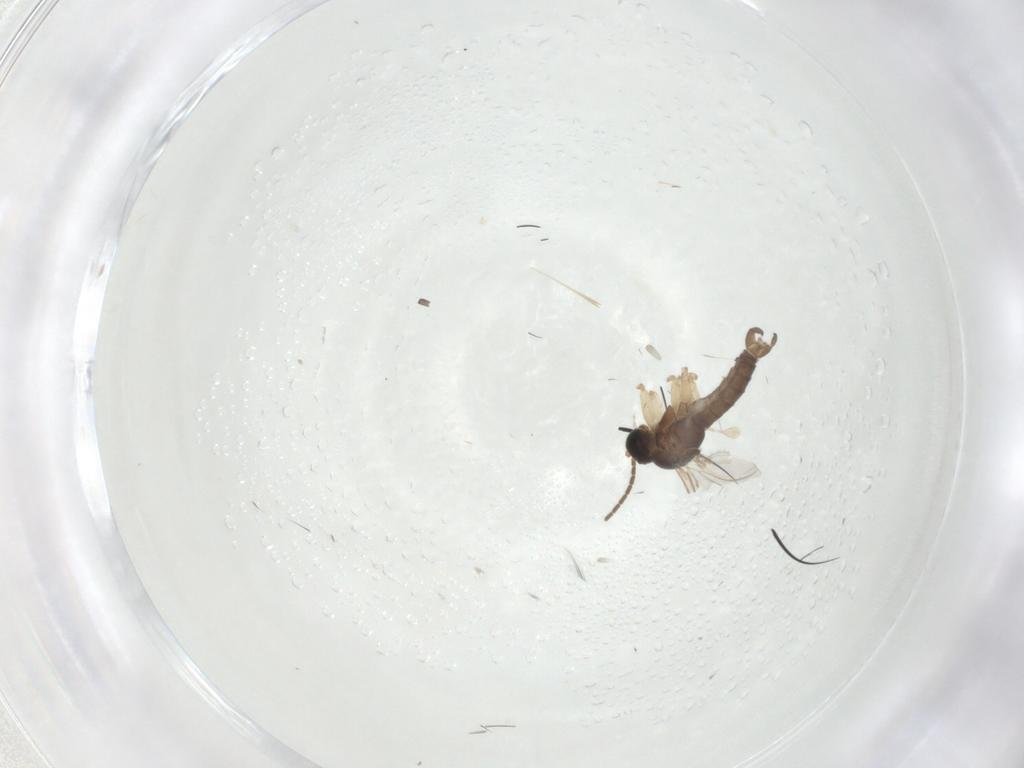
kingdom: Animalia
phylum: Arthropoda
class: Insecta
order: Diptera
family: Sciaridae
